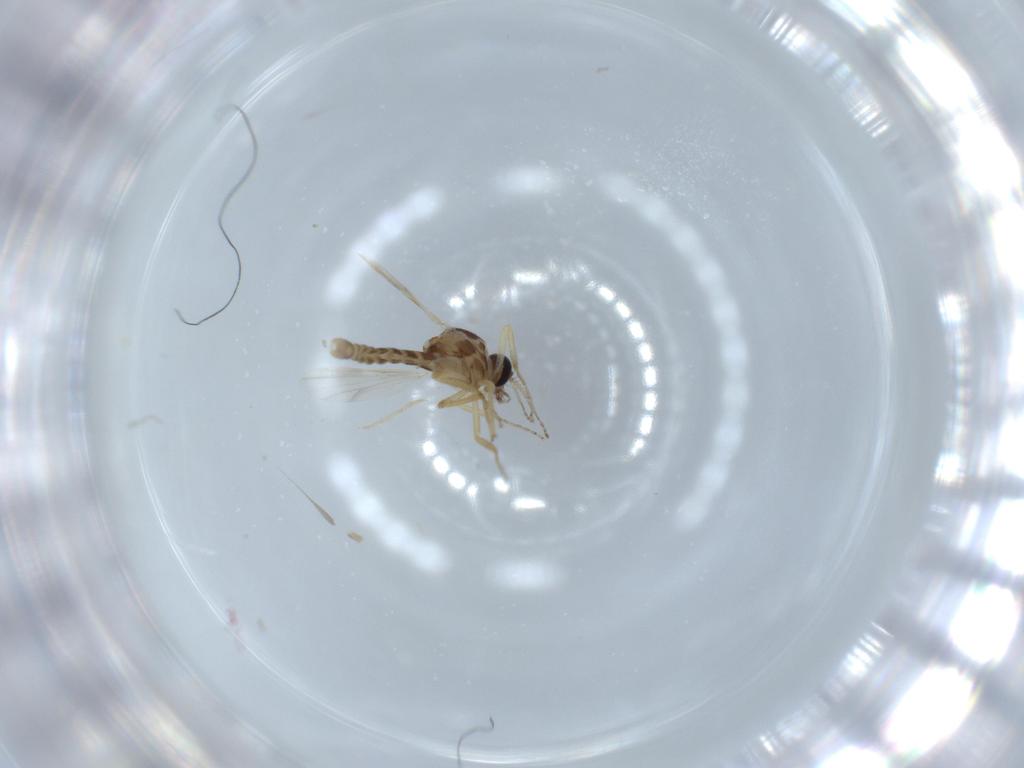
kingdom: Animalia
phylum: Arthropoda
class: Insecta
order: Diptera
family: Ceratopogonidae
